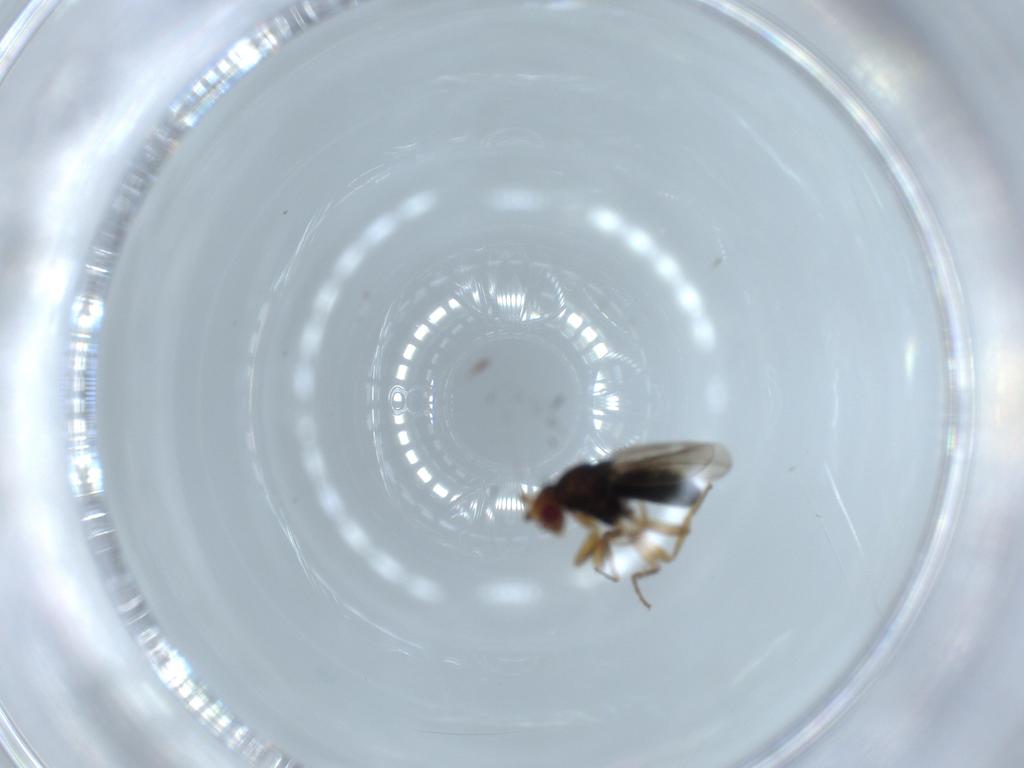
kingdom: Animalia
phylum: Arthropoda
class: Insecta
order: Diptera
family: Sphaeroceridae
